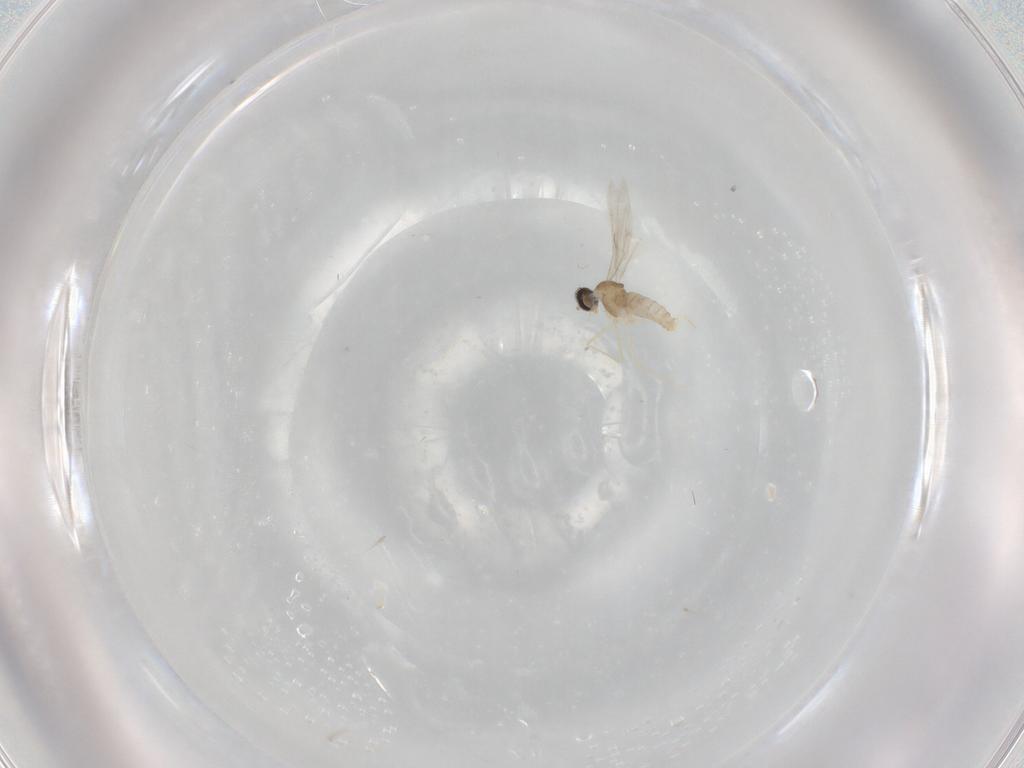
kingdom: Animalia
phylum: Arthropoda
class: Insecta
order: Diptera
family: Cecidomyiidae
